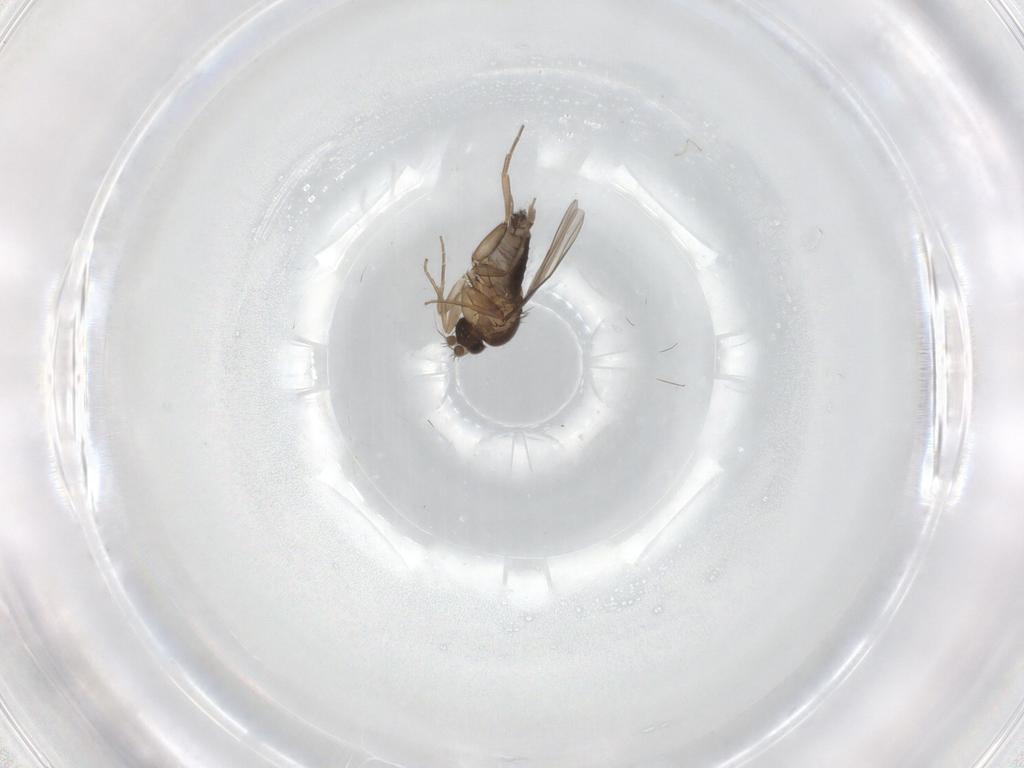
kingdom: Animalia
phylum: Arthropoda
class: Insecta
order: Diptera
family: Phoridae
